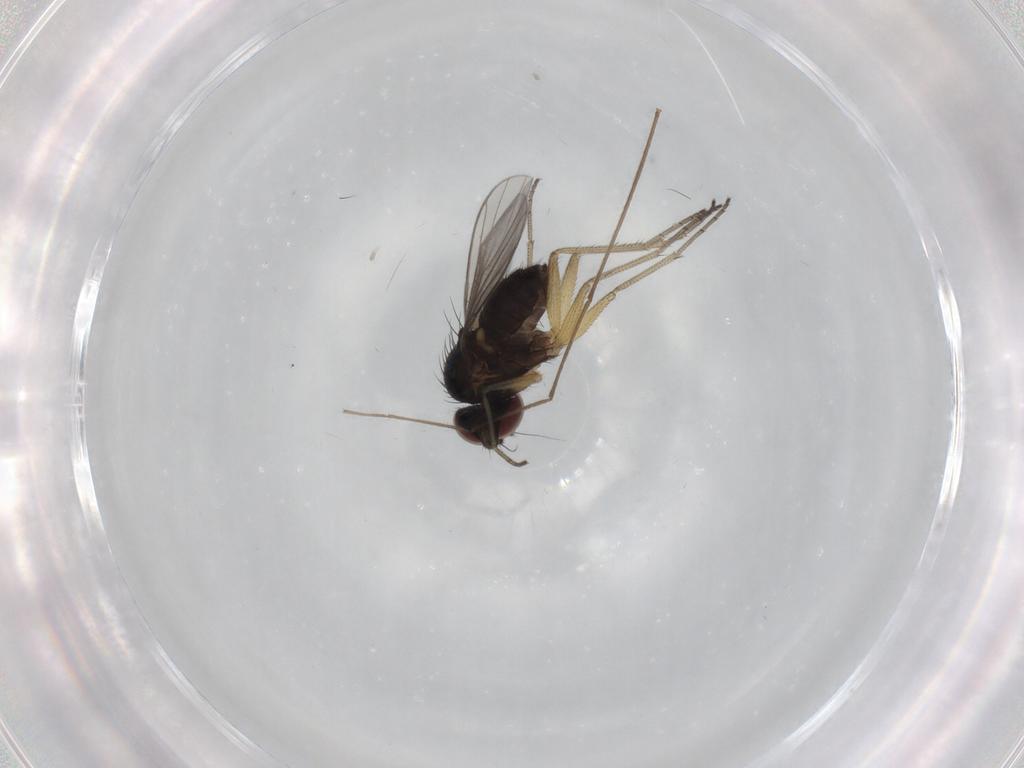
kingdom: Animalia
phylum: Arthropoda
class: Insecta
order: Diptera
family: Dolichopodidae
